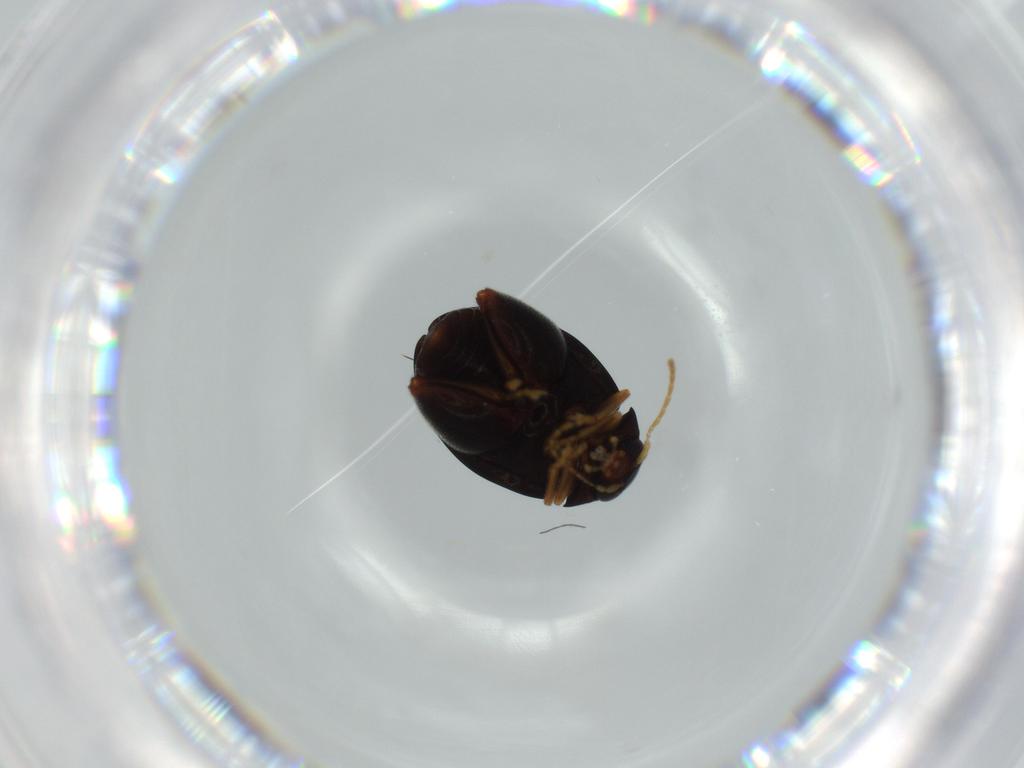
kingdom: Animalia
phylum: Arthropoda
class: Insecta
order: Coleoptera
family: Chrysomelidae
